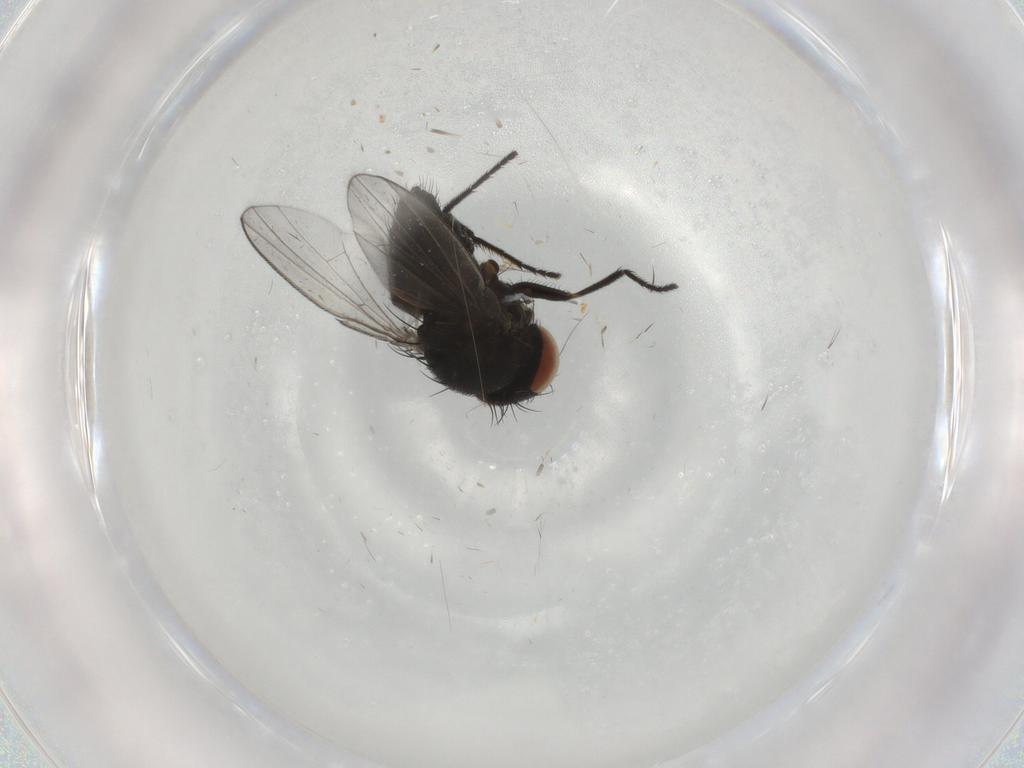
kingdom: Animalia
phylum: Arthropoda
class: Insecta
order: Diptera
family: Milichiidae
